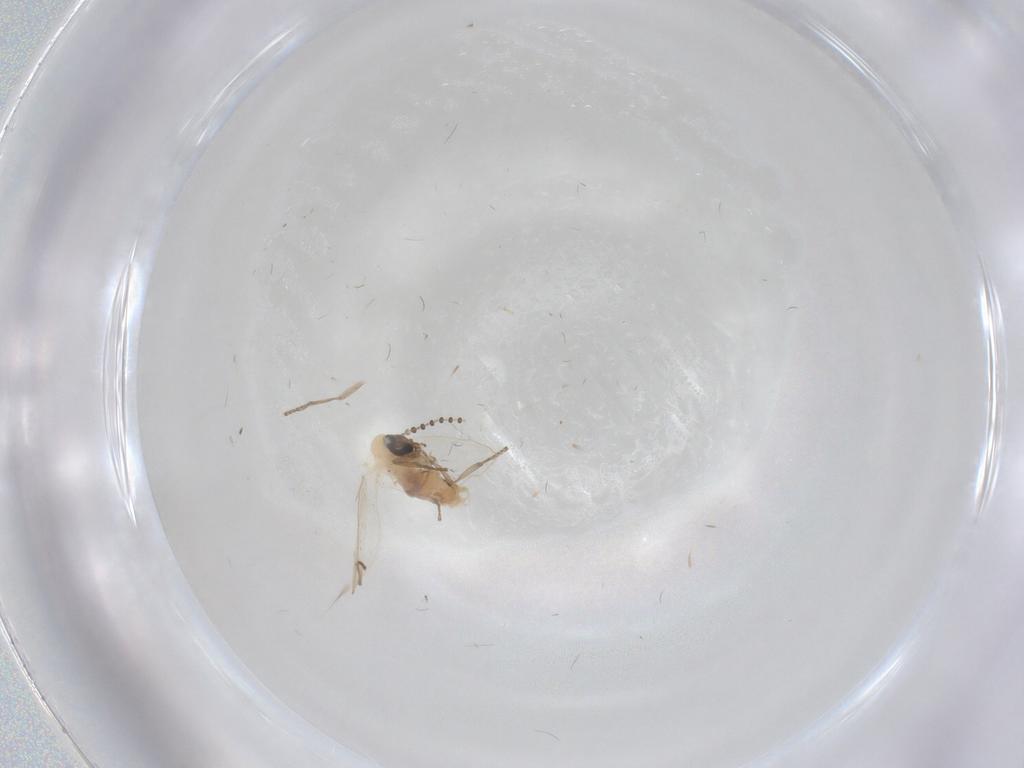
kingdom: Animalia
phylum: Arthropoda
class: Insecta
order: Diptera
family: Psychodidae
